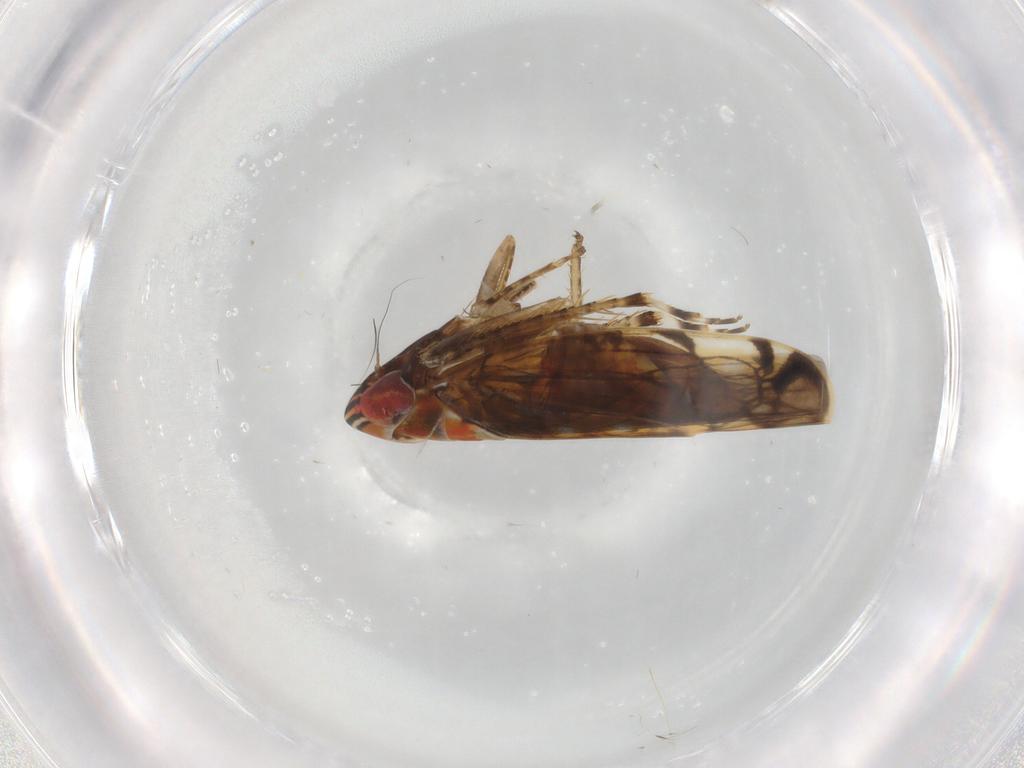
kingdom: Animalia
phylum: Arthropoda
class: Insecta
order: Hemiptera
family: Cicadellidae
